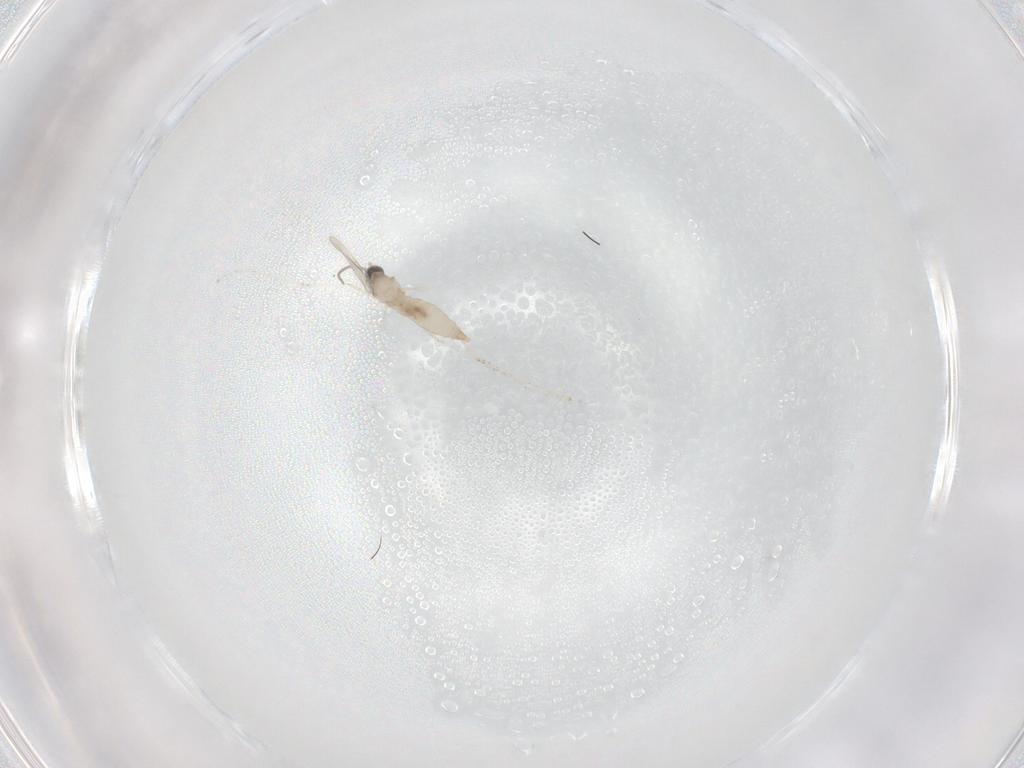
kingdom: Animalia
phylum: Arthropoda
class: Insecta
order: Diptera
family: Cecidomyiidae
